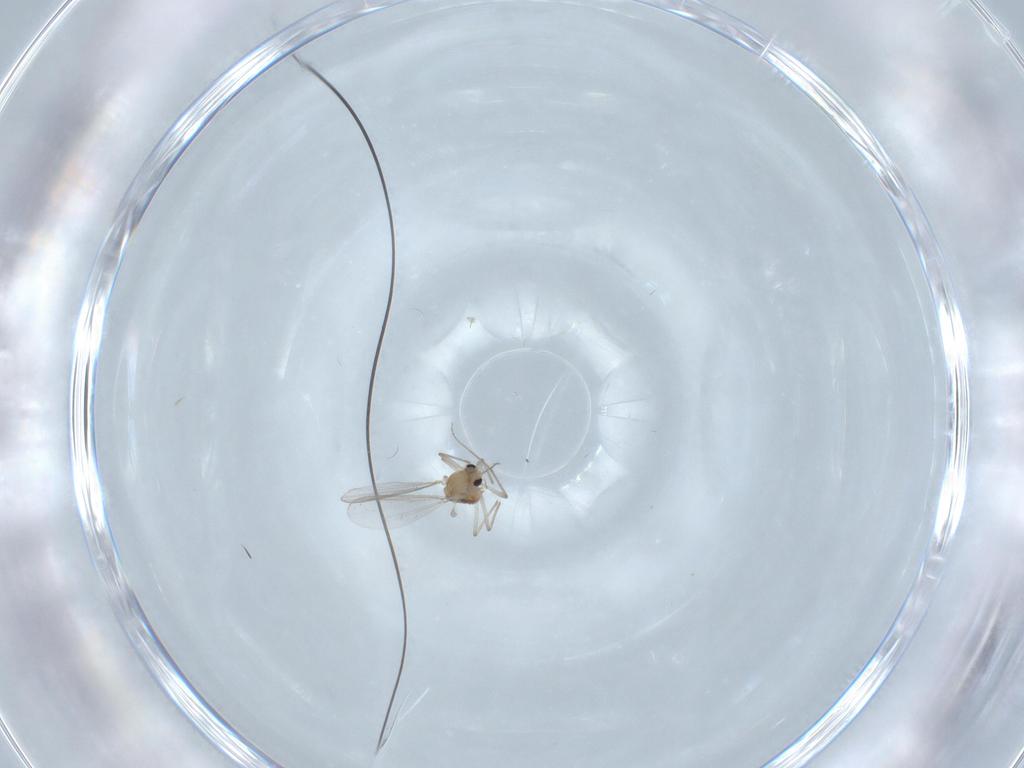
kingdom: Animalia
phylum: Arthropoda
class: Insecta
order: Diptera
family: Chironomidae
